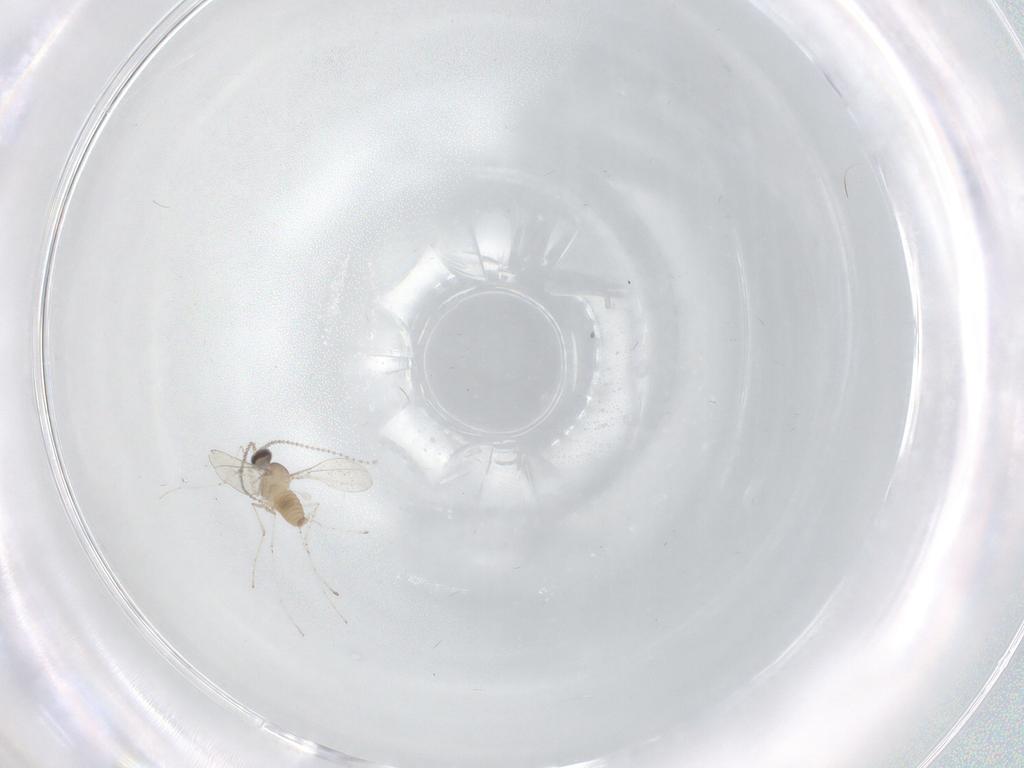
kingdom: Animalia
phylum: Arthropoda
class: Insecta
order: Diptera
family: Cecidomyiidae
